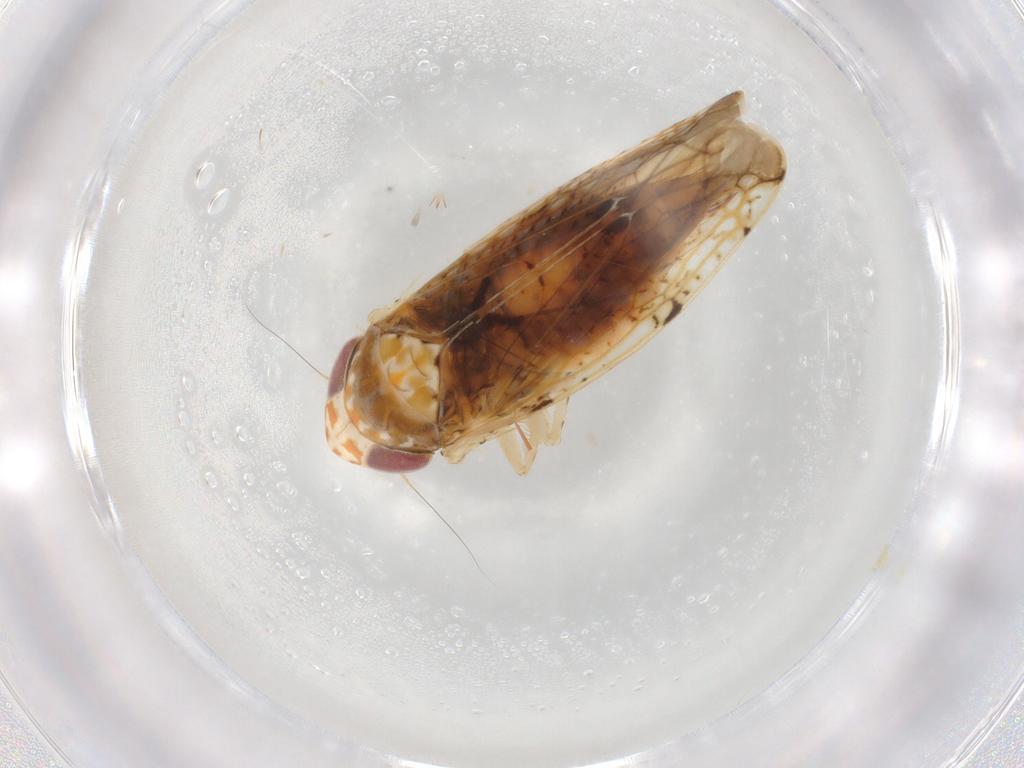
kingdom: Animalia
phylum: Arthropoda
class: Insecta
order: Hemiptera
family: Cicadellidae
